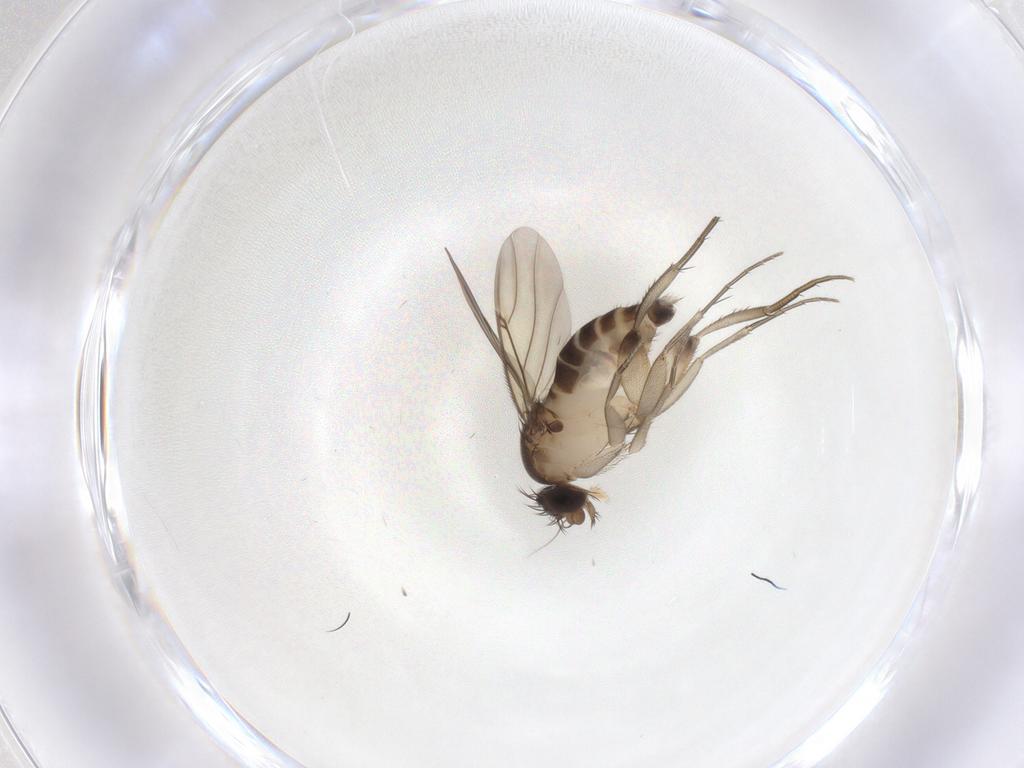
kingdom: Animalia
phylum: Arthropoda
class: Insecta
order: Diptera
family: Phoridae
